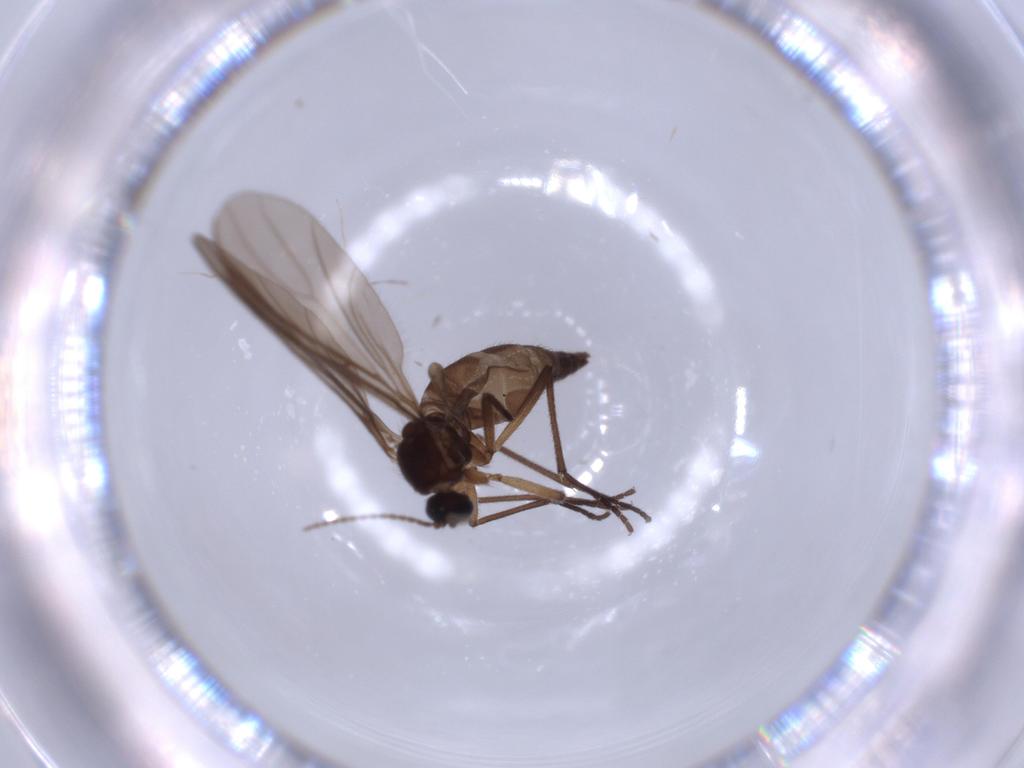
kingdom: Animalia
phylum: Arthropoda
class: Insecta
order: Diptera
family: Sciaridae
